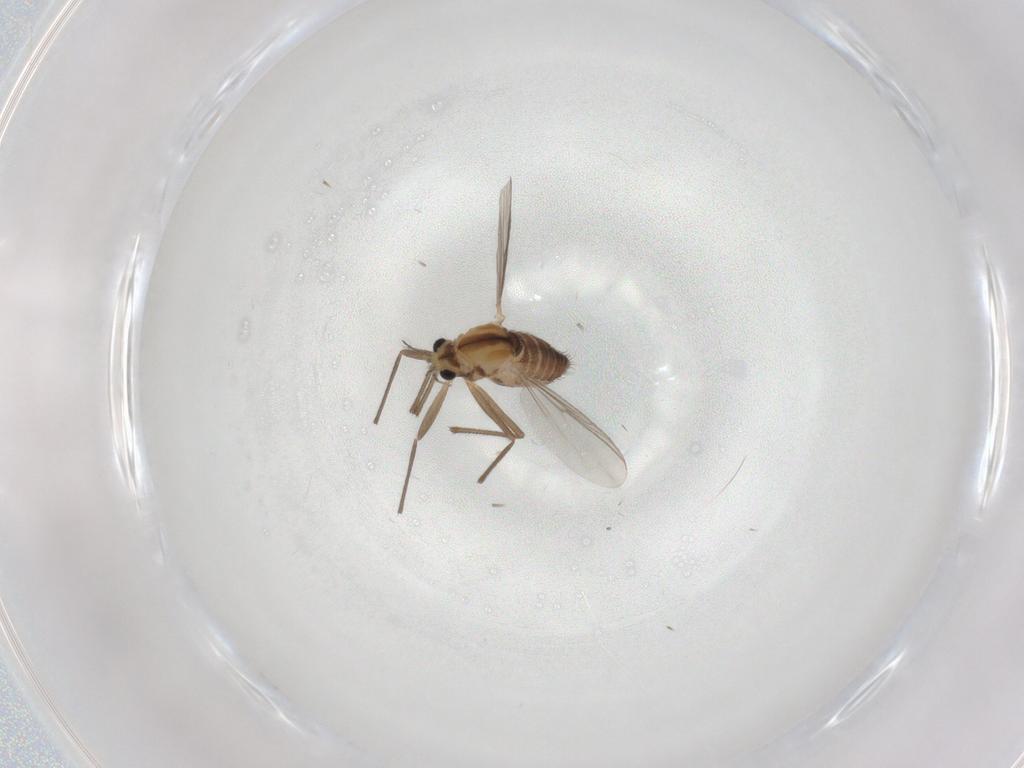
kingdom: Animalia
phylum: Arthropoda
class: Insecta
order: Diptera
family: Chironomidae
